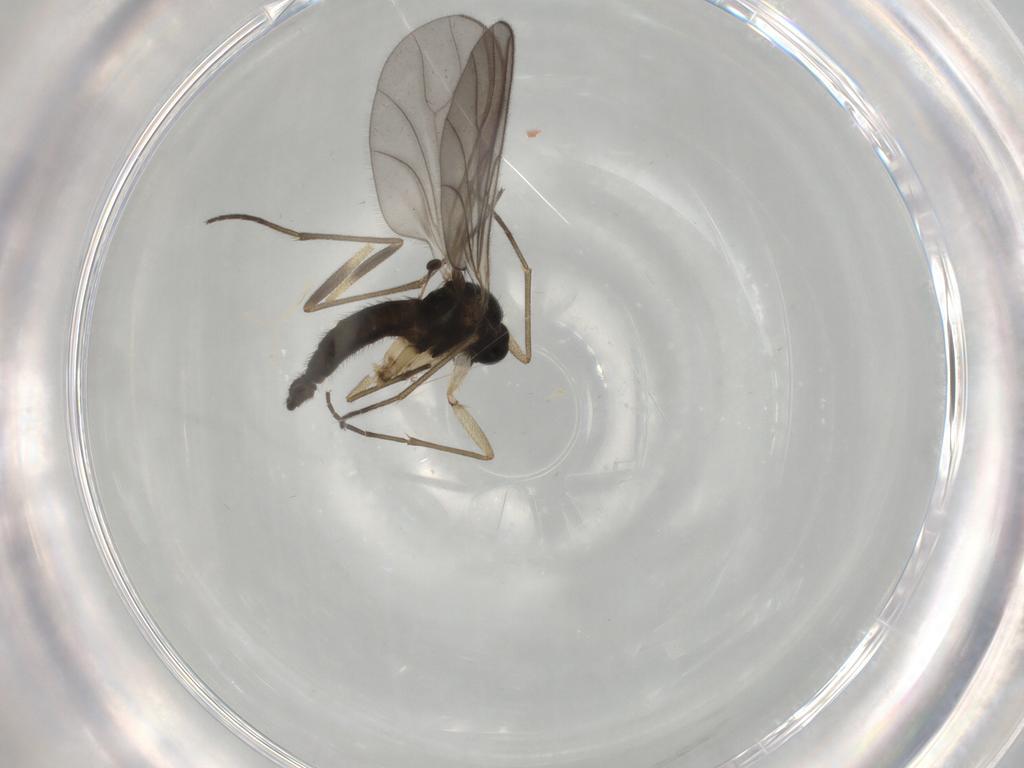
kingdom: Animalia
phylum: Arthropoda
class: Insecta
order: Diptera
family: Sciaridae
